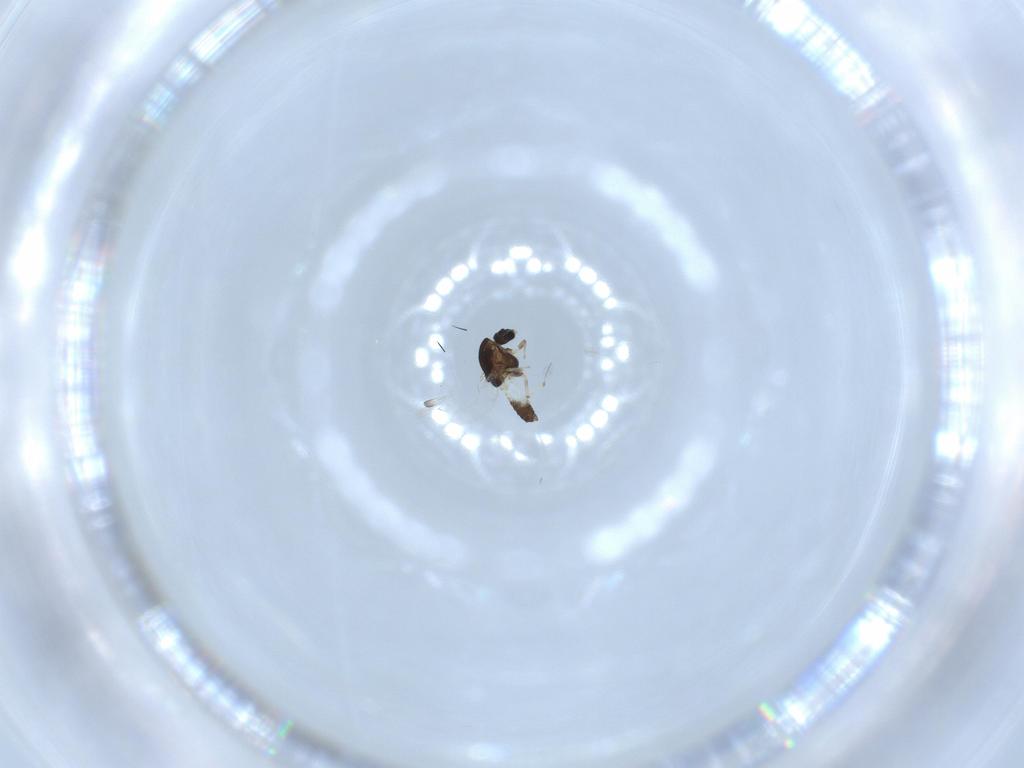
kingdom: Animalia
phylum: Arthropoda
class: Insecta
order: Diptera
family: Chironomidae
